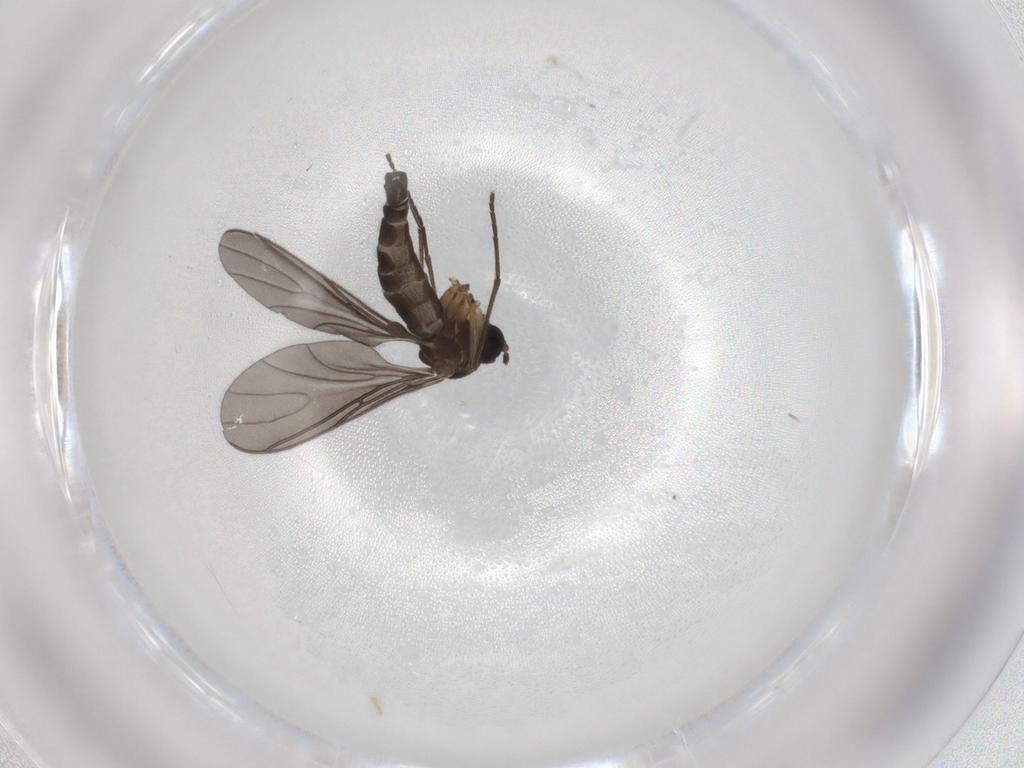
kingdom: Animalia
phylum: Arthropoda
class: Insecta
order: Diptera
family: Sciaridae
